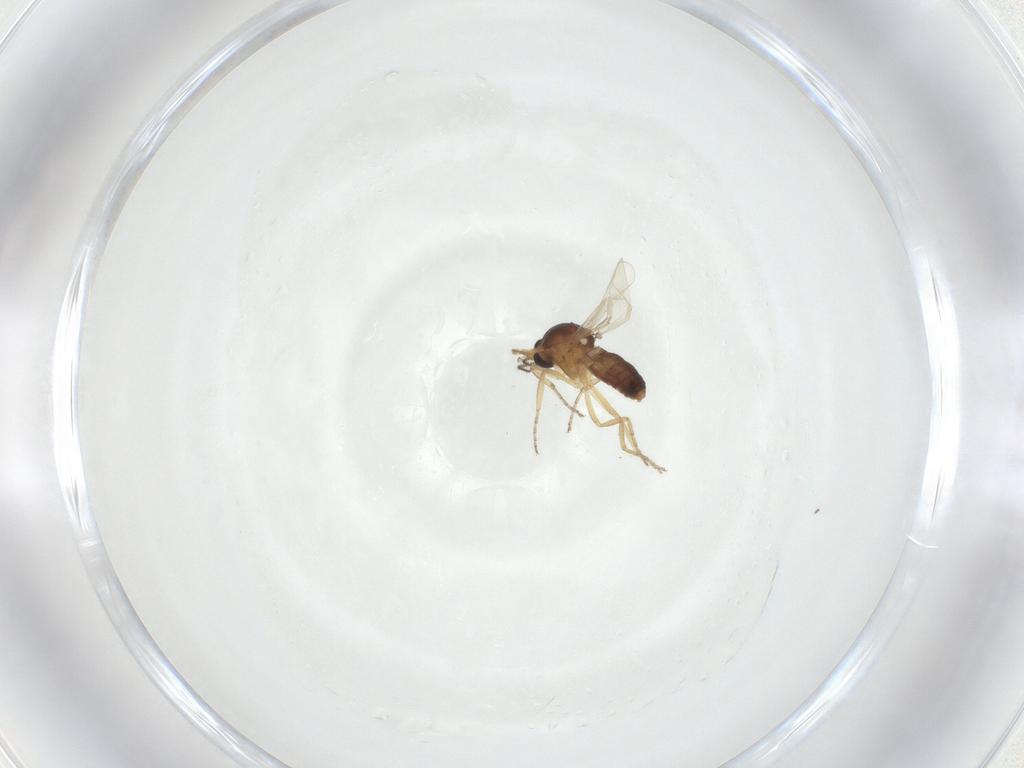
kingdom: Animalia
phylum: Arthropoda
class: Insecta
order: Diptera
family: Ceratopogonidae
